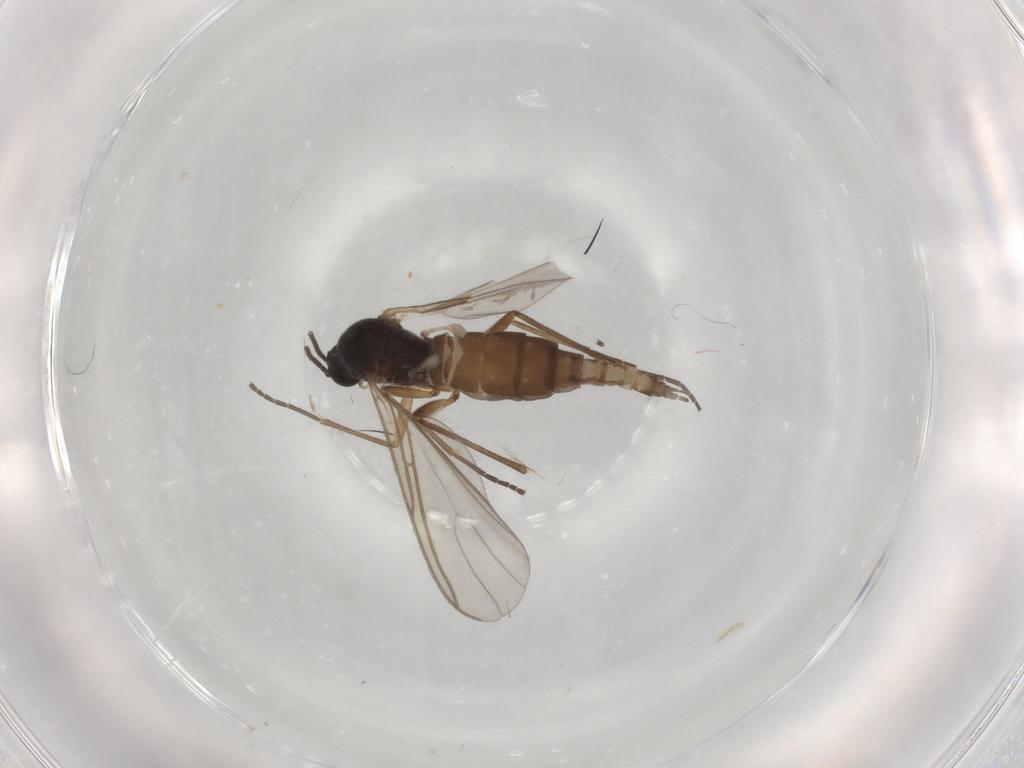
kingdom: Animalia
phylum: Arthropoda
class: Insecta
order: Diptera
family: Sciaridae
